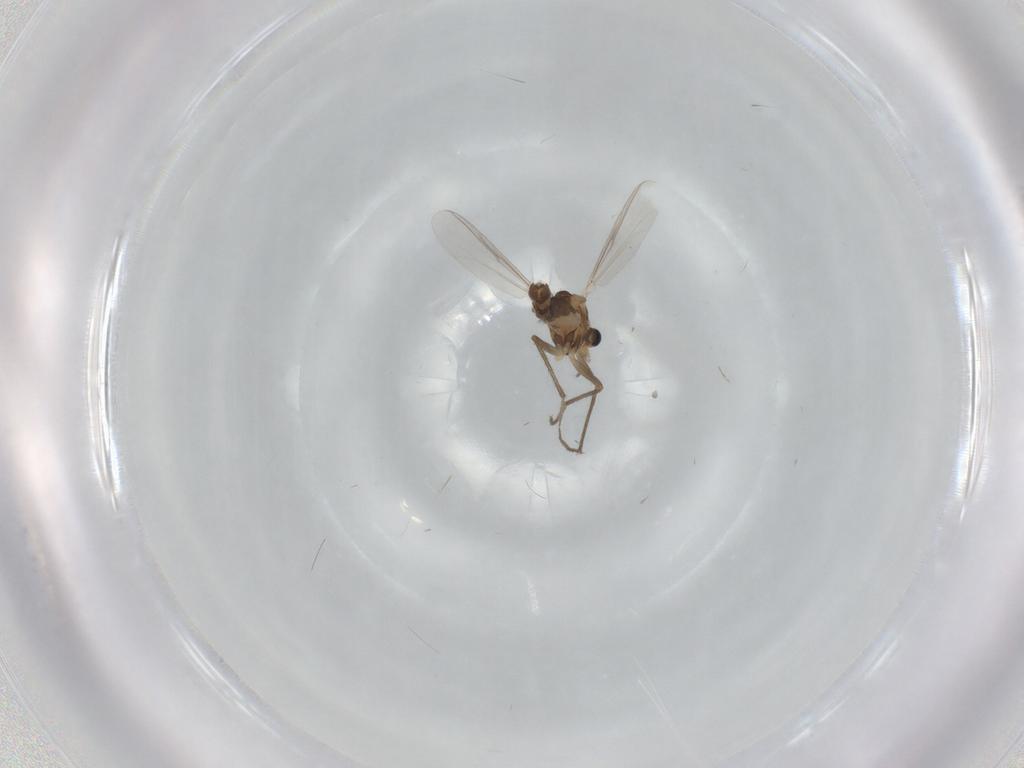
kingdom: Animalia
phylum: Arthropoda
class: Insecta
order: Diptera
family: Chironomidae
